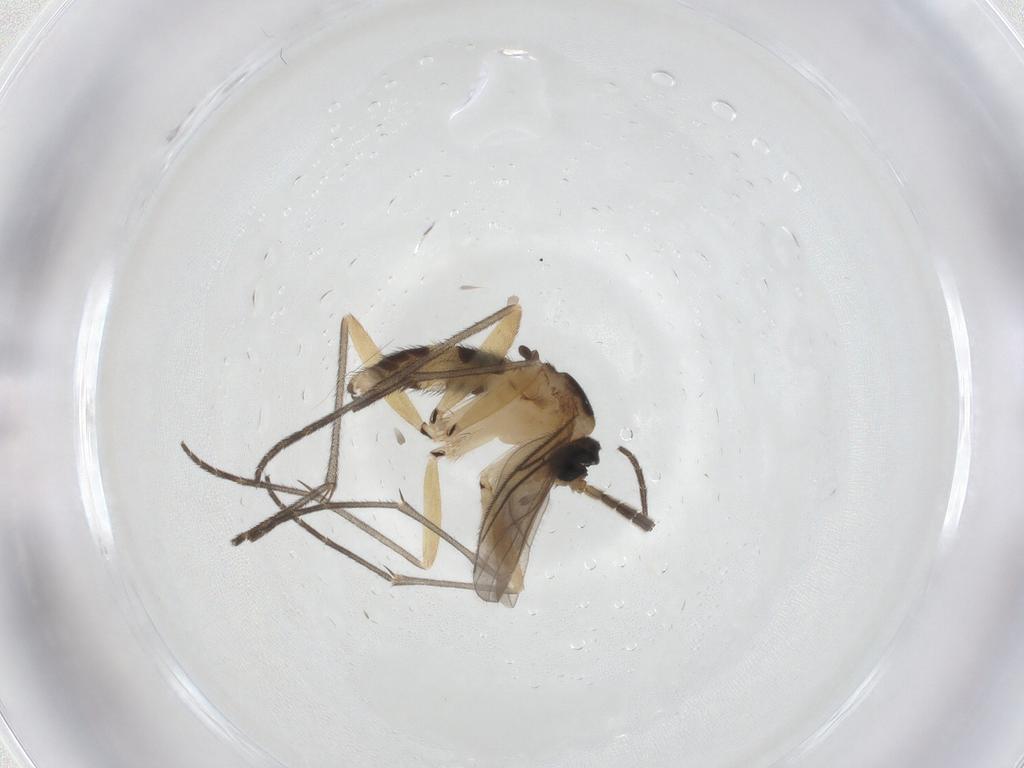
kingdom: Animalia
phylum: Arthropoda
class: Insecta
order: Diptera
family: Sciaridae
